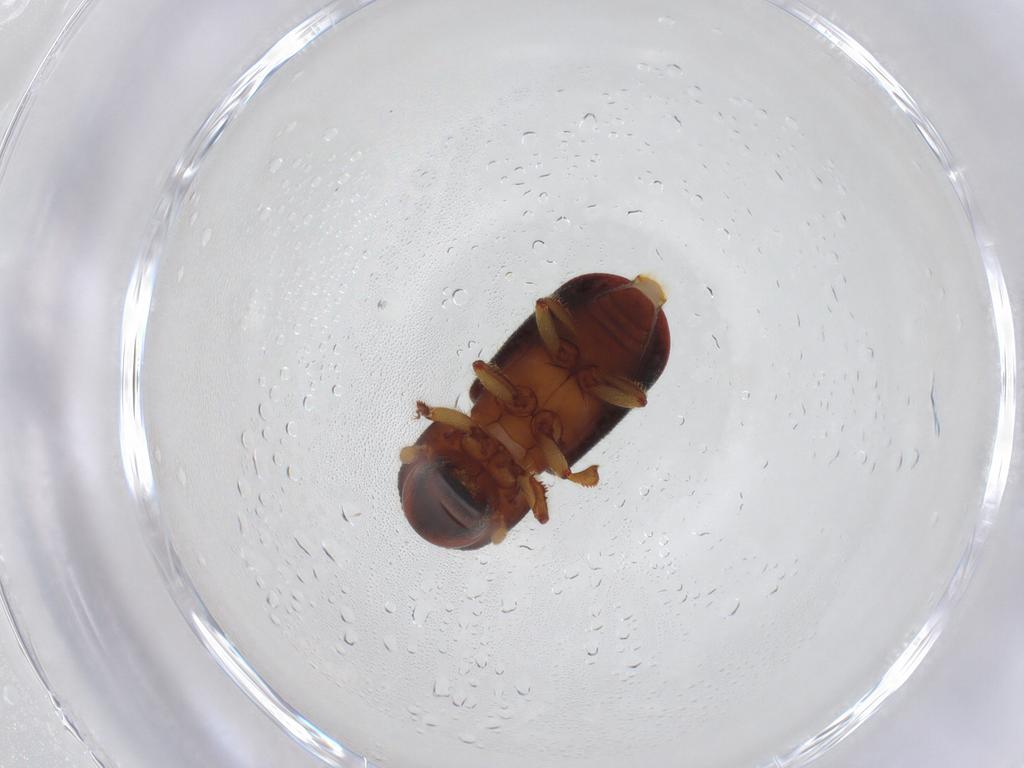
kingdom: Animalia
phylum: Arthropoda
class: Insecta
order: Coleoptera
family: Curculionidae
